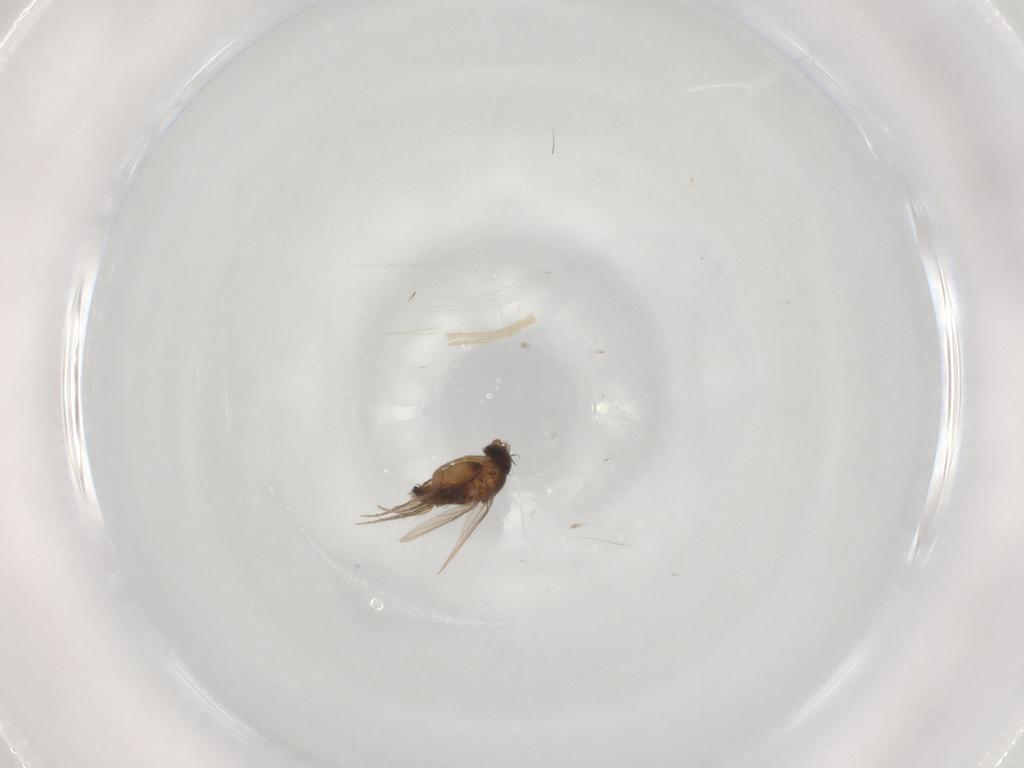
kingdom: Animalia
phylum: Arthropoda
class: Insecta
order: Diptera
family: Phoridae
